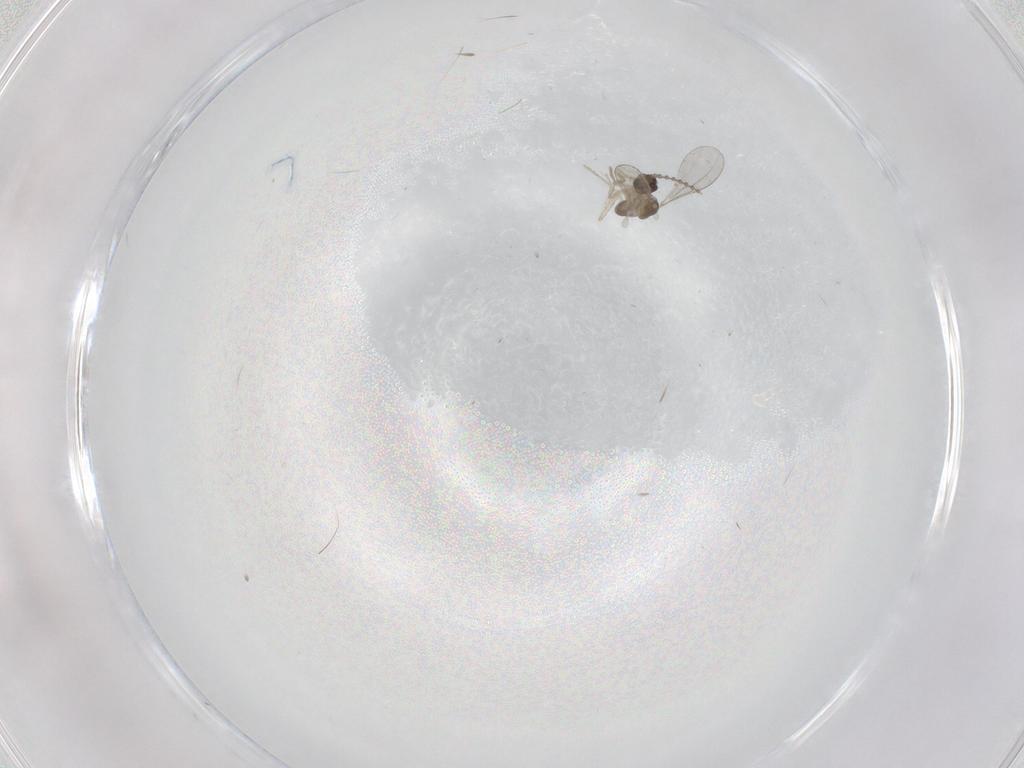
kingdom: Animalia
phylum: Arthropoda
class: Insecta
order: Diptera
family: Cecidomyiidae
